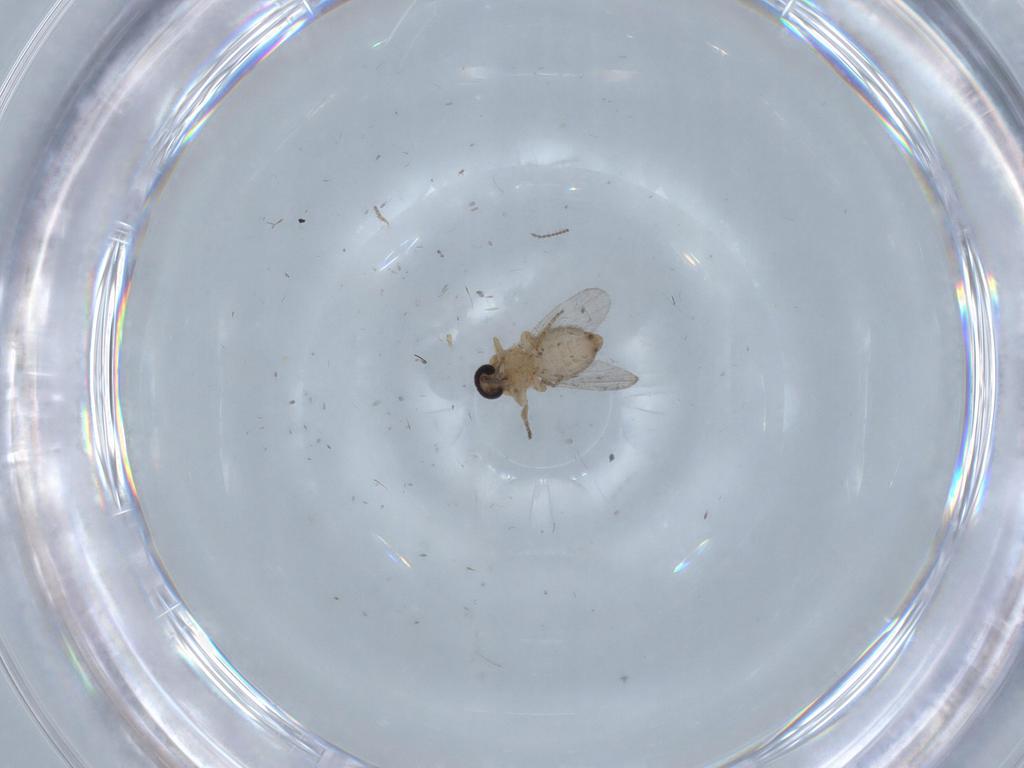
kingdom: Animalia
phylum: Arthropoda
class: Insecta
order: Diptera
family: Ceratopogonidae
